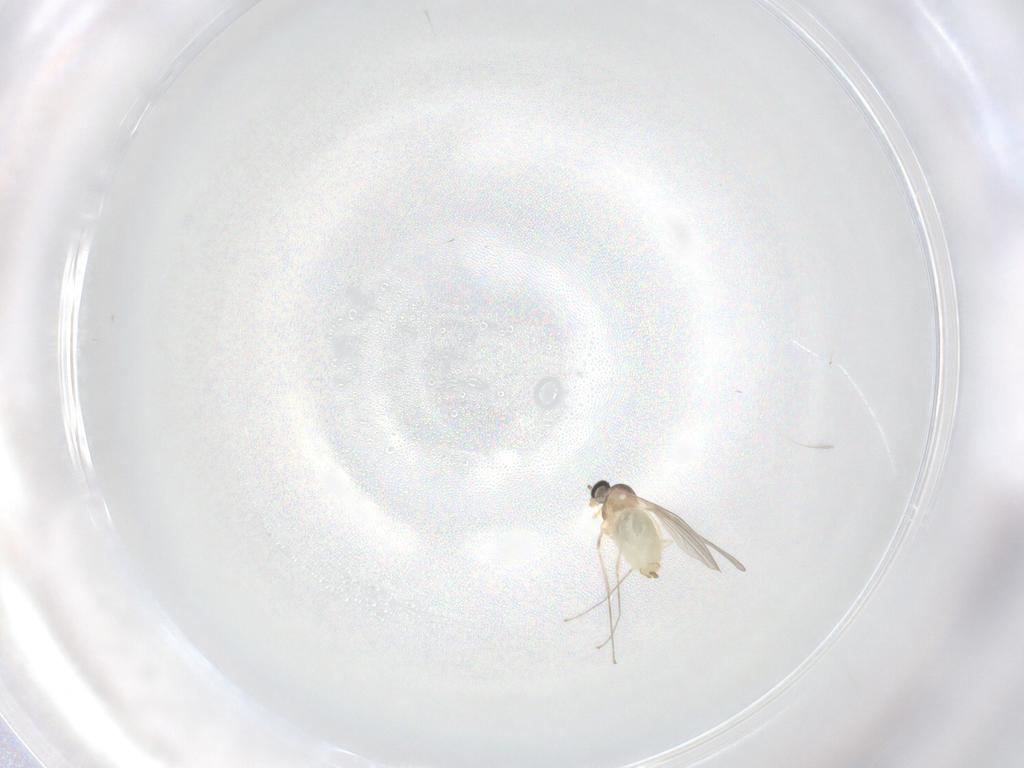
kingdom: Animalia
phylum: Arthropoda
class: Insecta
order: Diptera
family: Cecidomyiidae
